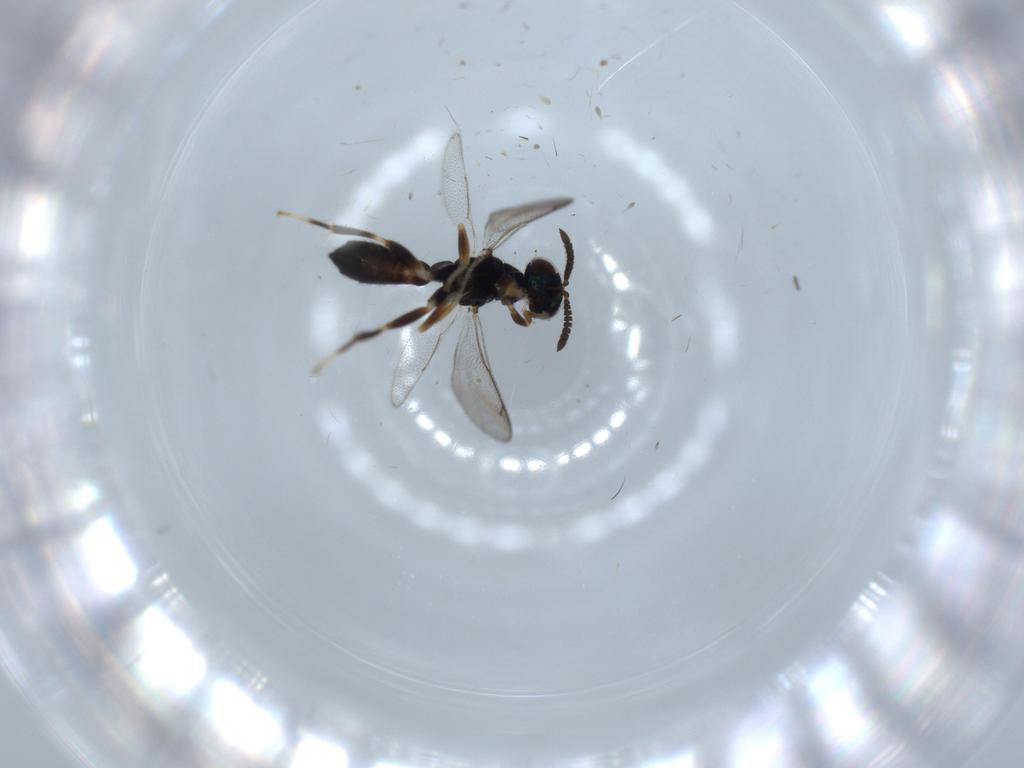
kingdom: Animalia
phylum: Arthropoda
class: Insecta
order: Hymenoptera
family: Cleonyminae
